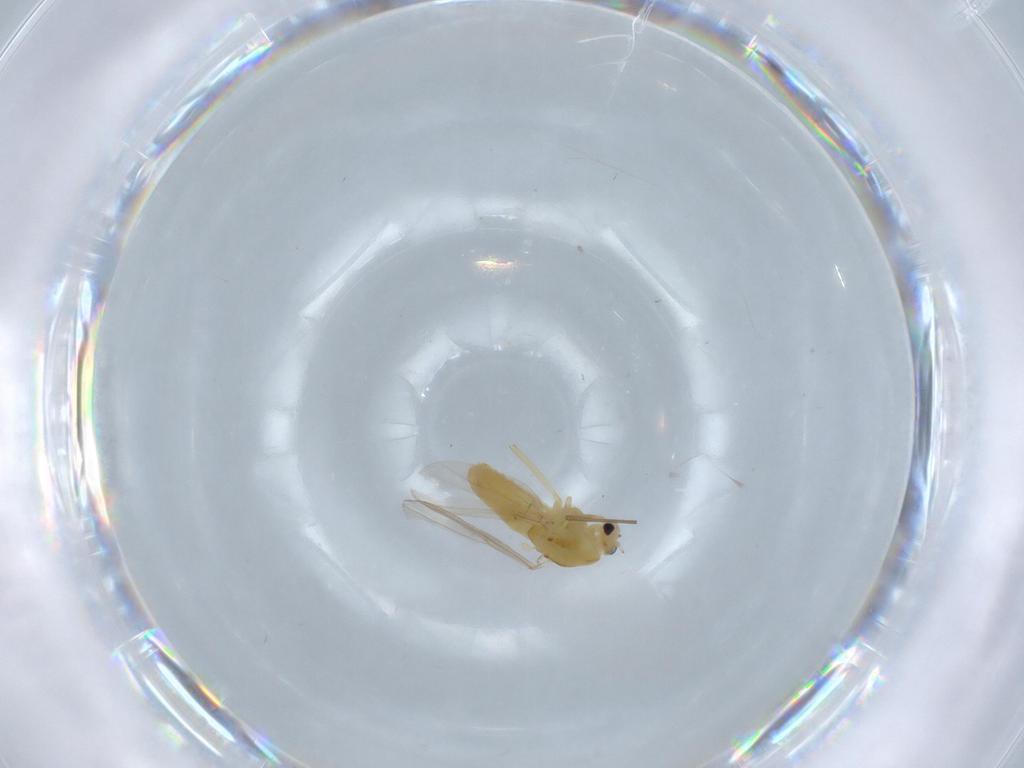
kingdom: Animalia
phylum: Arthropoda
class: Insecta
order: Diptera
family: Chironomidae
